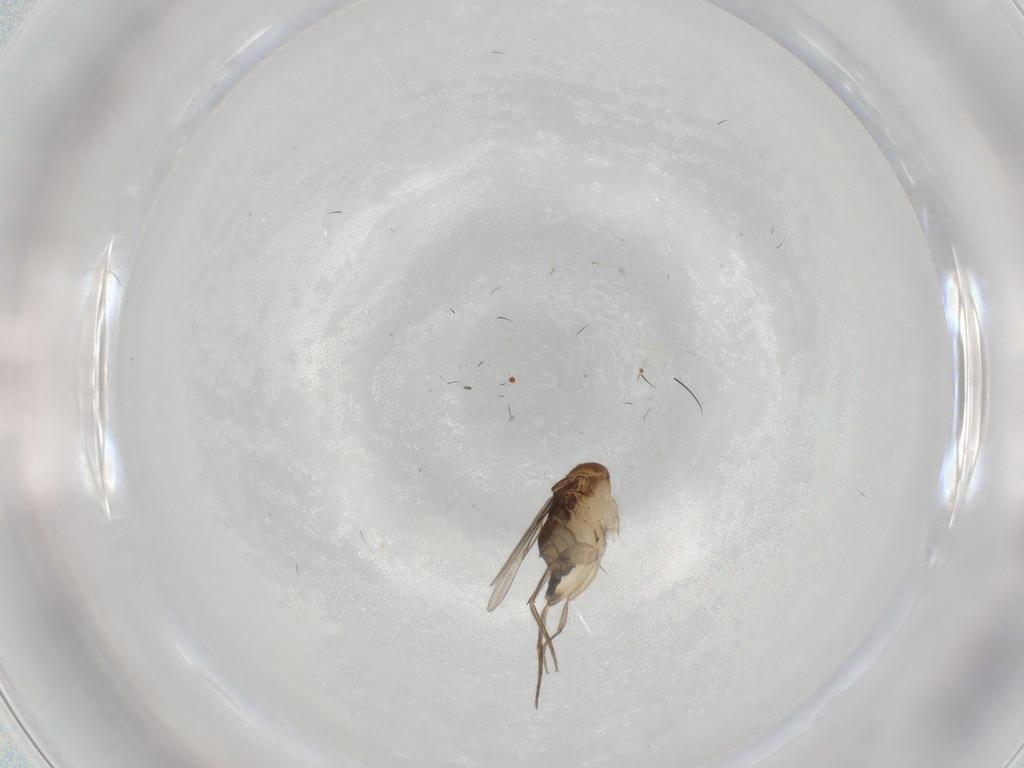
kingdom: Animalia
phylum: Arthropoda
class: Insecta
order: Diptera
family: Phoridae
